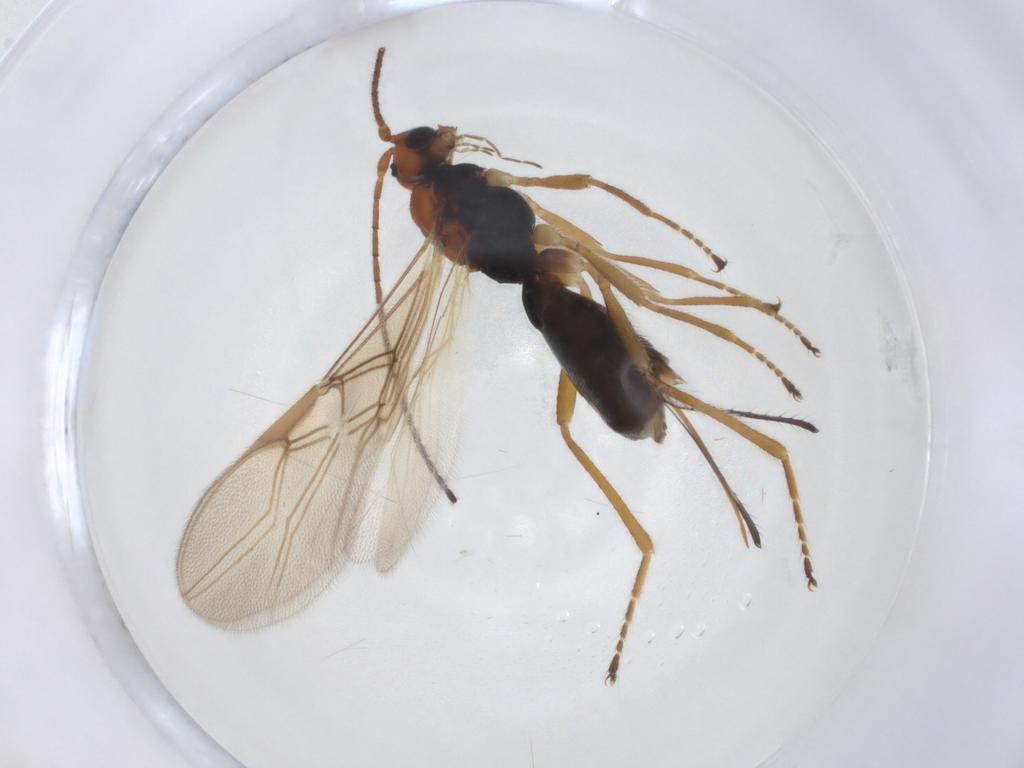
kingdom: Animalia
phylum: Arthropoda
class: Insecta
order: Hymenoptera
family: Braconidae
